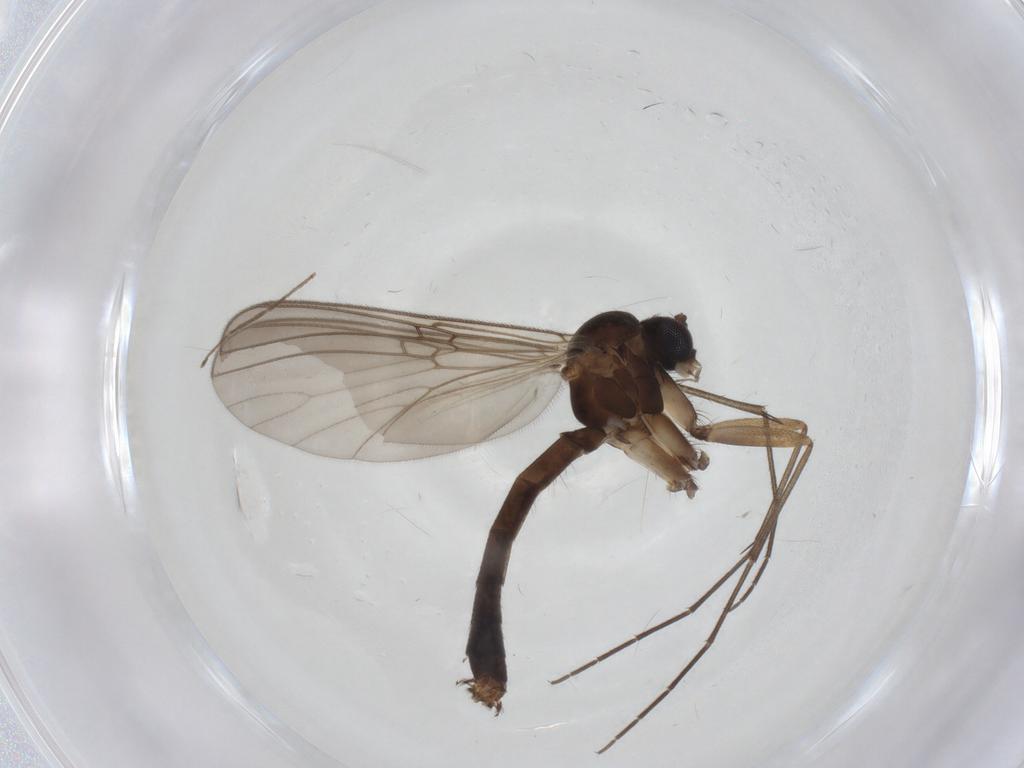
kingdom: Animalia
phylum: Arthropoda
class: Insecta
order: Diptera
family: Mycetophilidae
